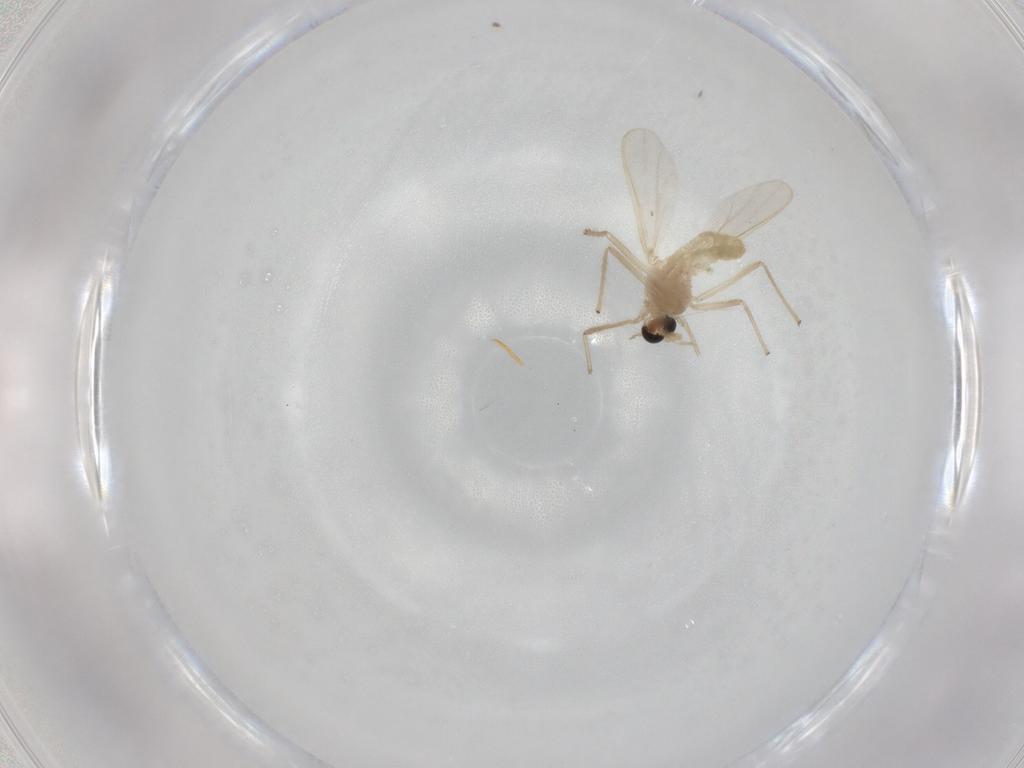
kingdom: Animalia
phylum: Arthropoda
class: Insecta
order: Diptera
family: Chironomidae
